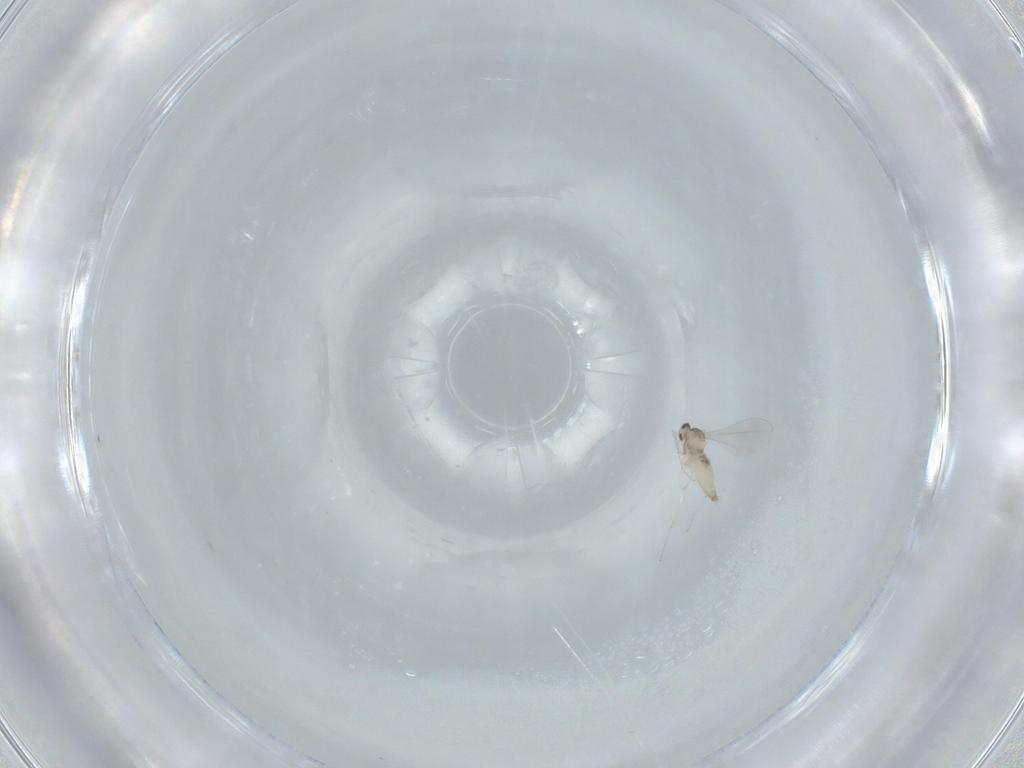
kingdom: Animalia
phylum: Arthropoda
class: Insecta
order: Diptera
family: Cecidomyiidae
